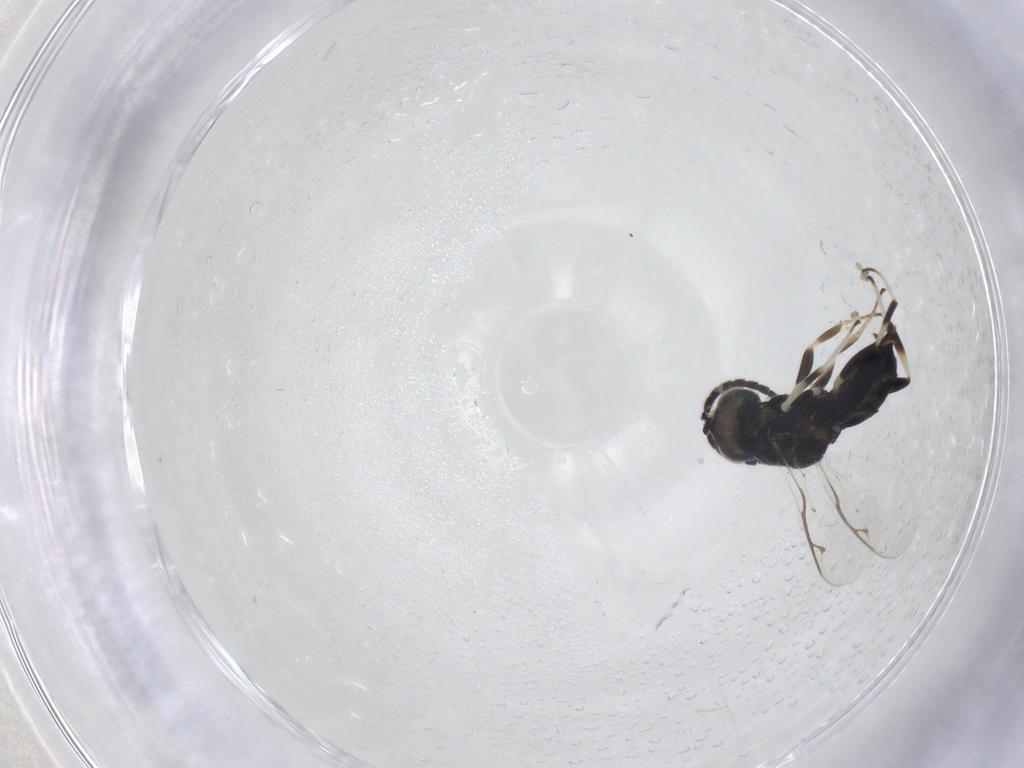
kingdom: Animalia
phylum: Arthropoda
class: Insecta
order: Hymenoptera
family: Eupelmidae
